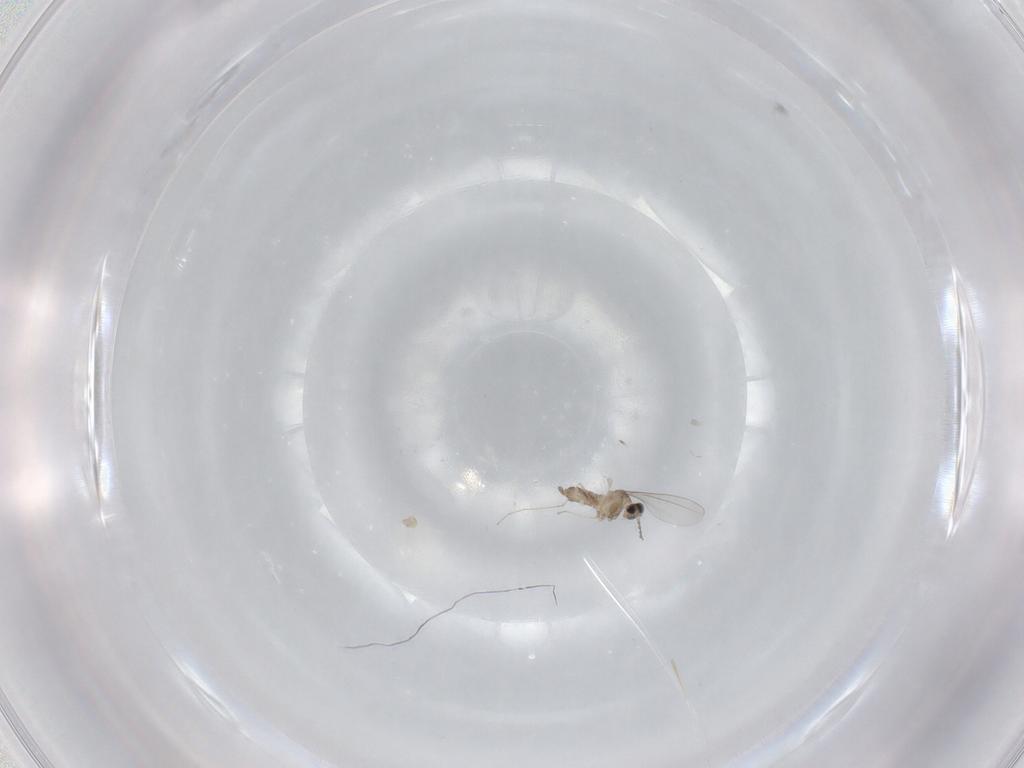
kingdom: Animalia
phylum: Arthropoda
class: Insecta
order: Diptera
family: Cecidomyiidae
